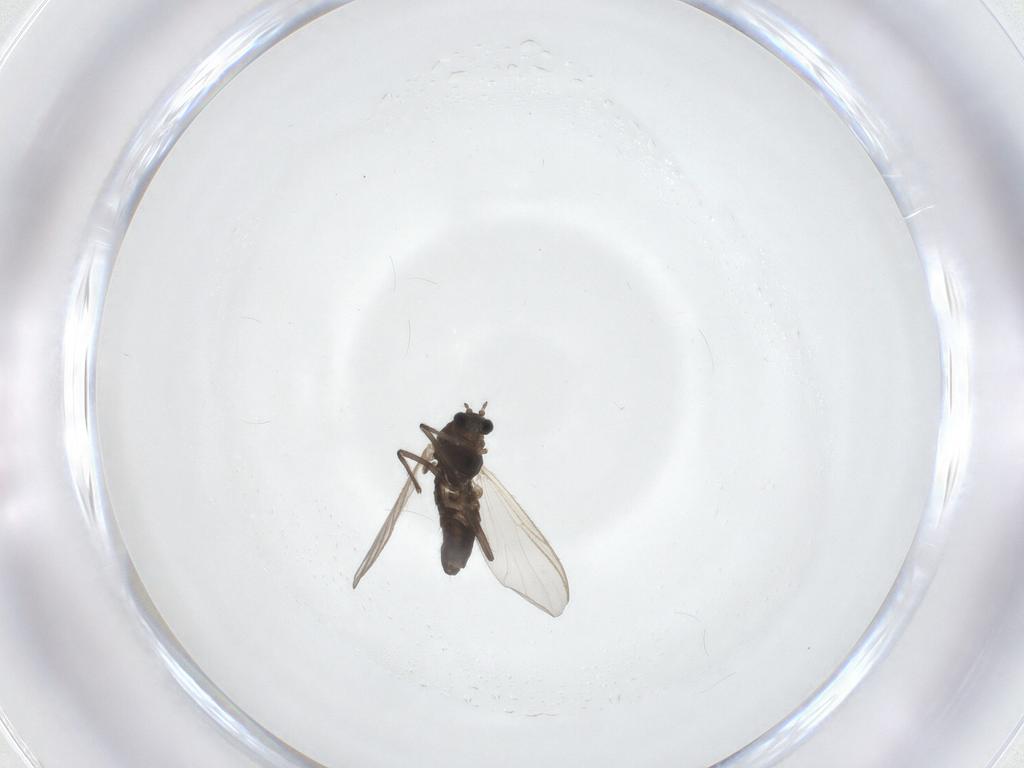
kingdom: Animalia
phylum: Arthropoda
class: Insecta
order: Diptera
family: Chironomidae
